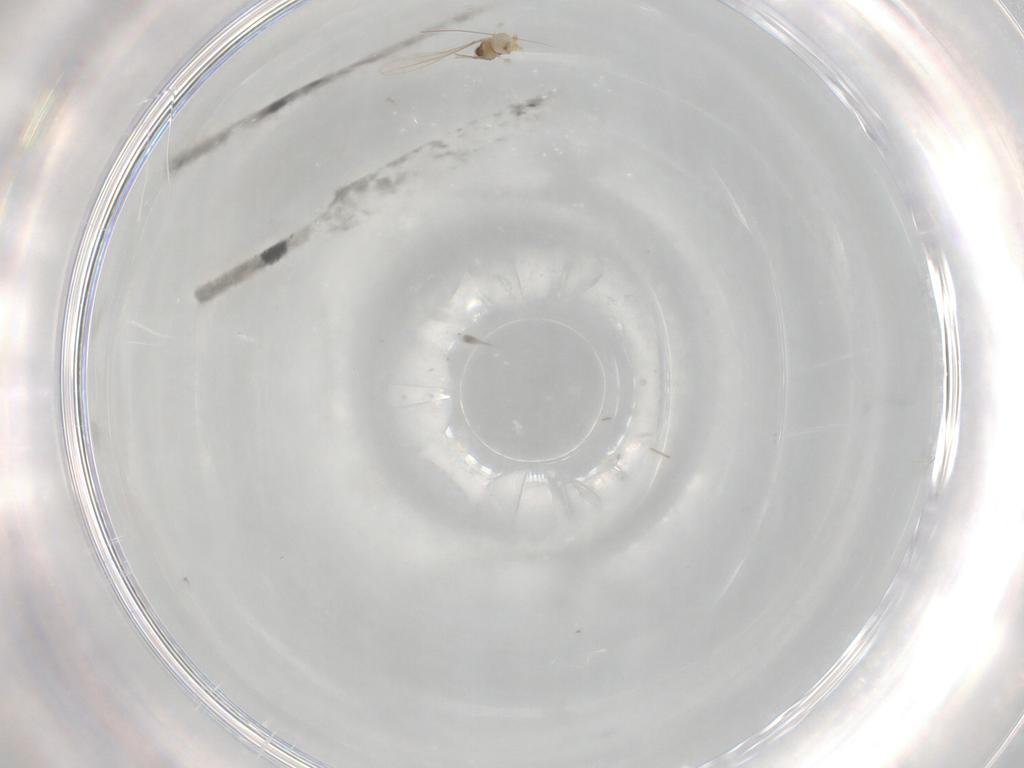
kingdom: Animalia
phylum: Arthropoda
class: Insecta
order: Diptera
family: Cecidomyiidae
